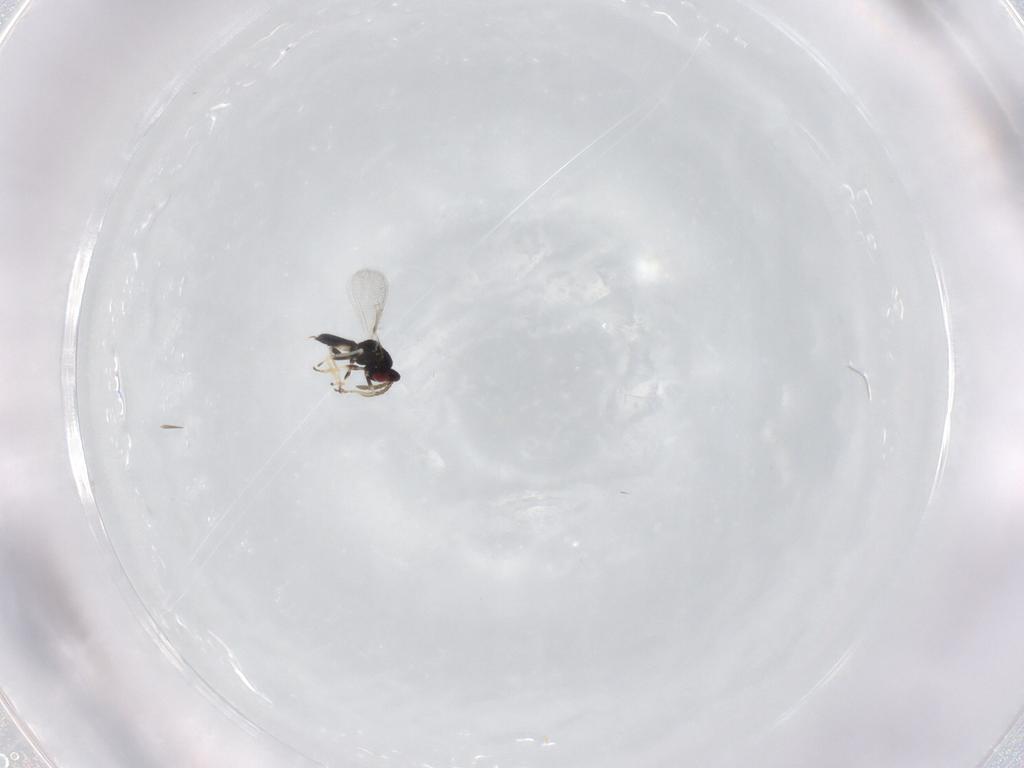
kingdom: Animalia
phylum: Arthropoda
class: Insecta
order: Hymenoptera
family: Eulophidae
